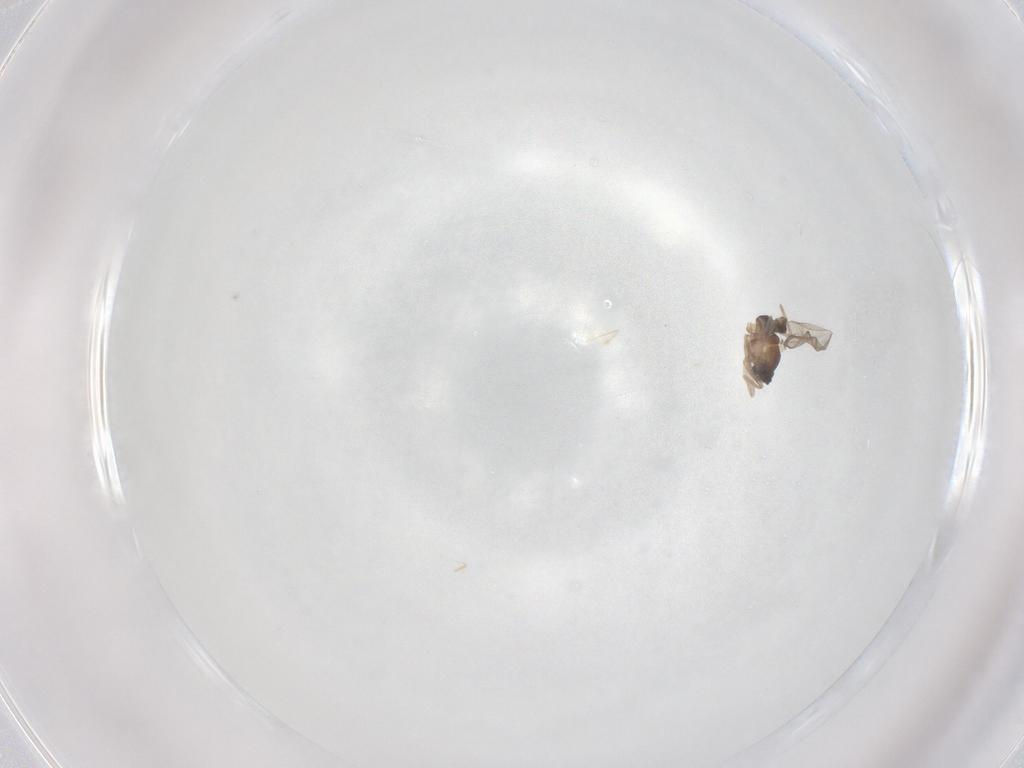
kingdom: Animalia
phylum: Arthropoda
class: Insecta
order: Diptera
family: Cecidomyiidae
